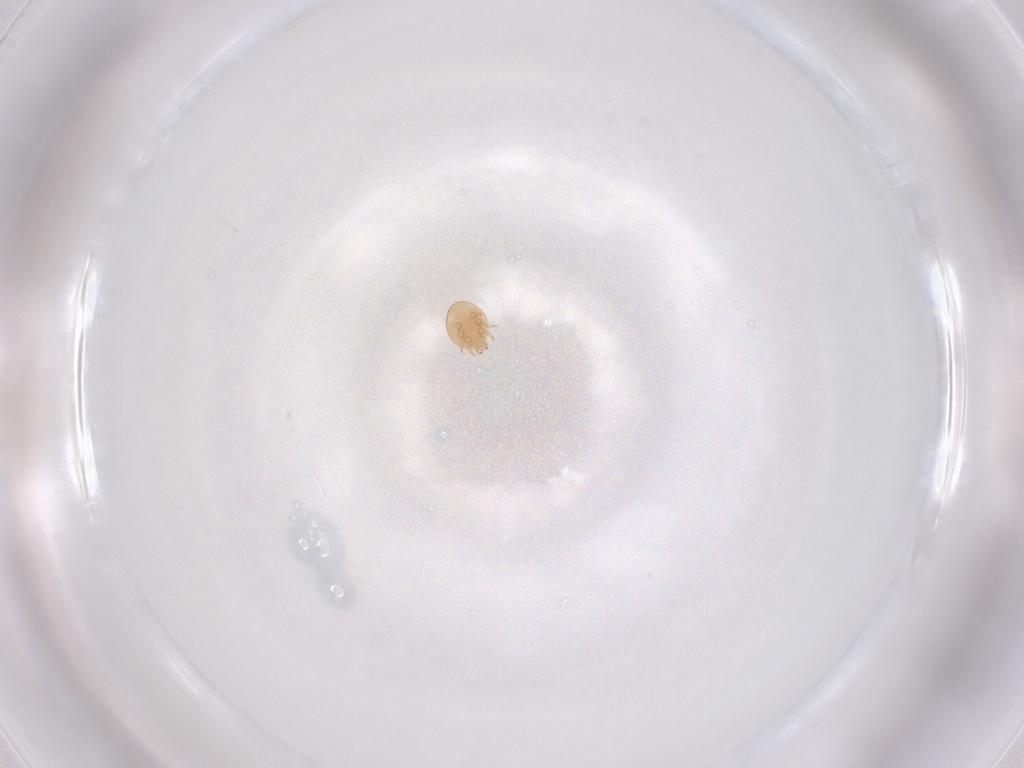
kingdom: Animalia
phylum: Arthropoda
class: Arachnida
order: Mesostigmata
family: Trematuridae
